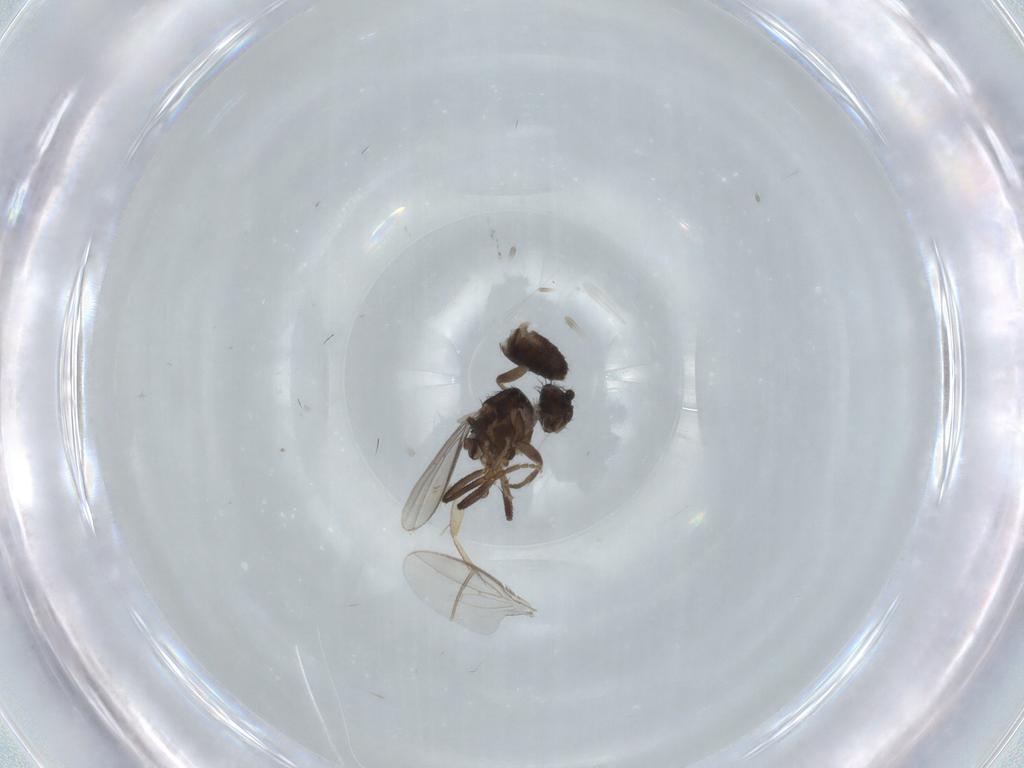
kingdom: Animalia
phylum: Arthropoda
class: Insecta
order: Diptera
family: Sphaeroceridae
